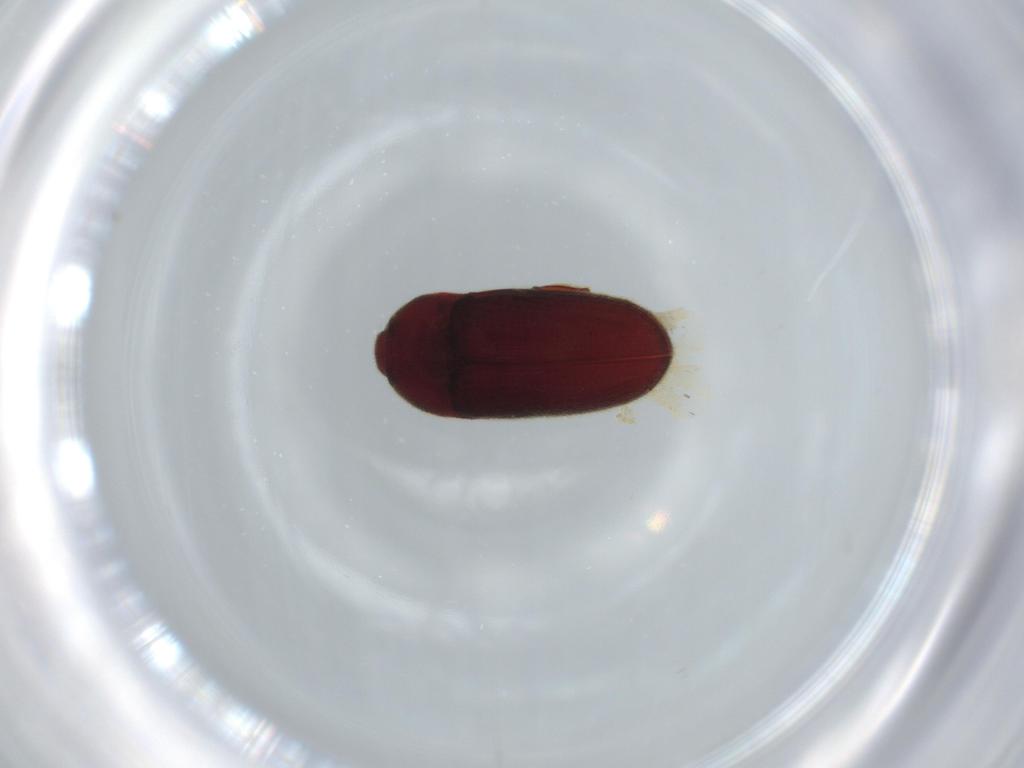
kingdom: Animalia
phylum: Arthropoda
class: Insecta
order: Coleoptera
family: Throscidae
